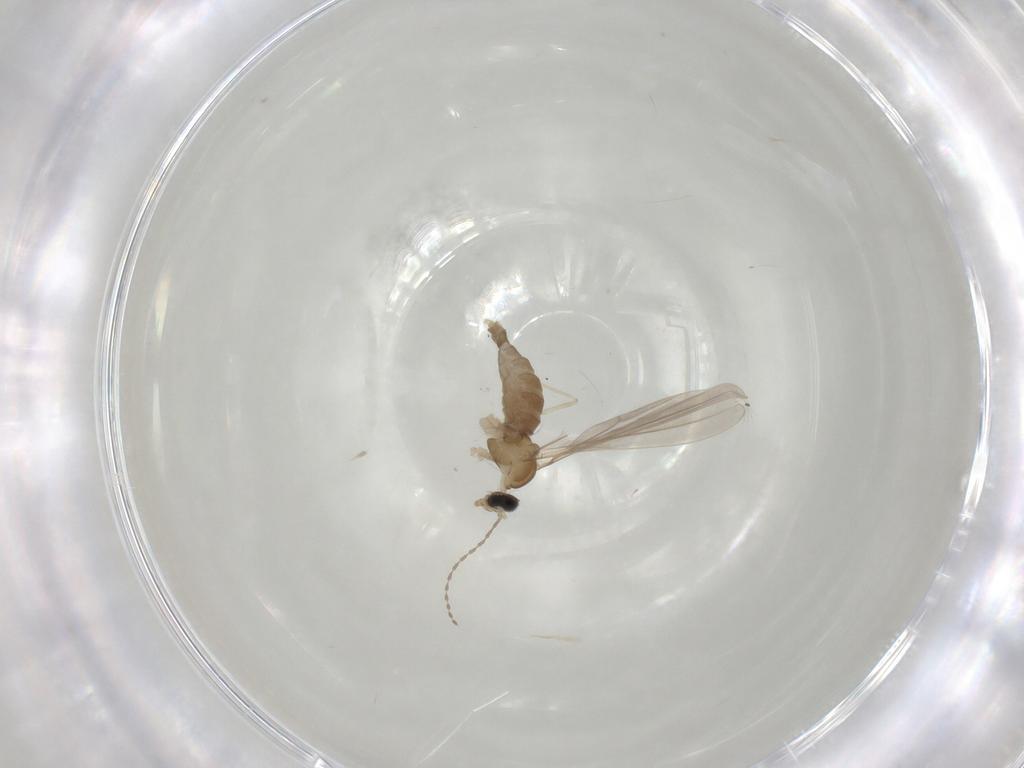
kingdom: Animalia
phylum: Arthropoda
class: Insecta
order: Diptera
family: Cecidomyiidae
